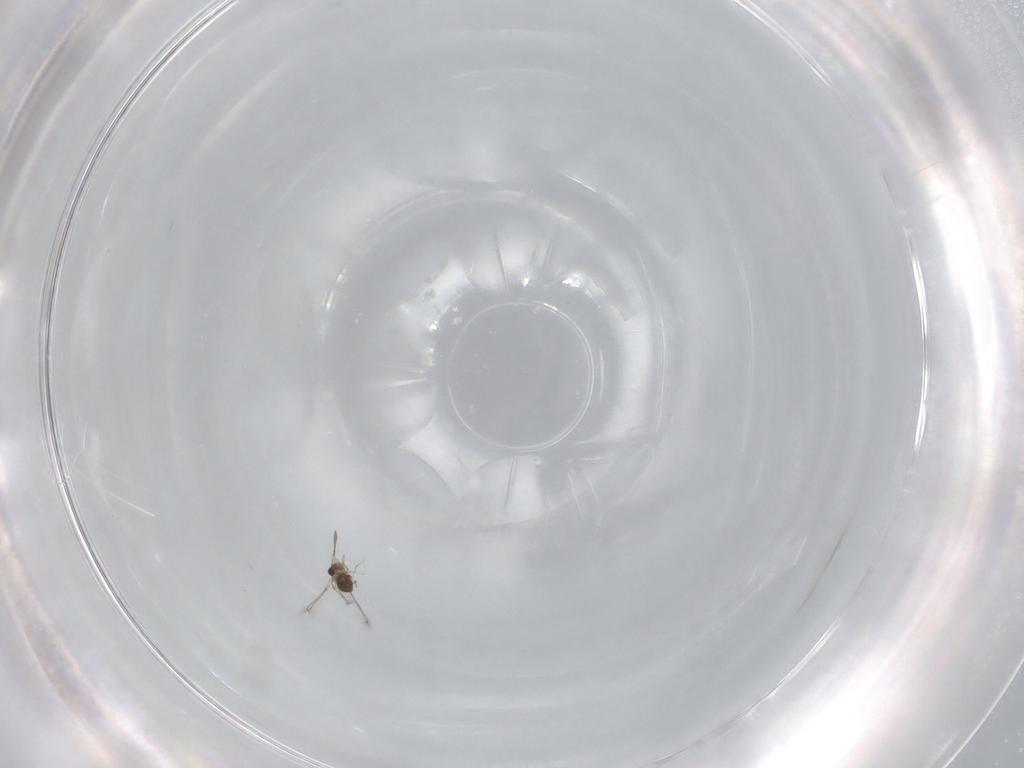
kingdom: Animalia
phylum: Arthropoda
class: Insecta
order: Hymenoptera
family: Mymaridae
